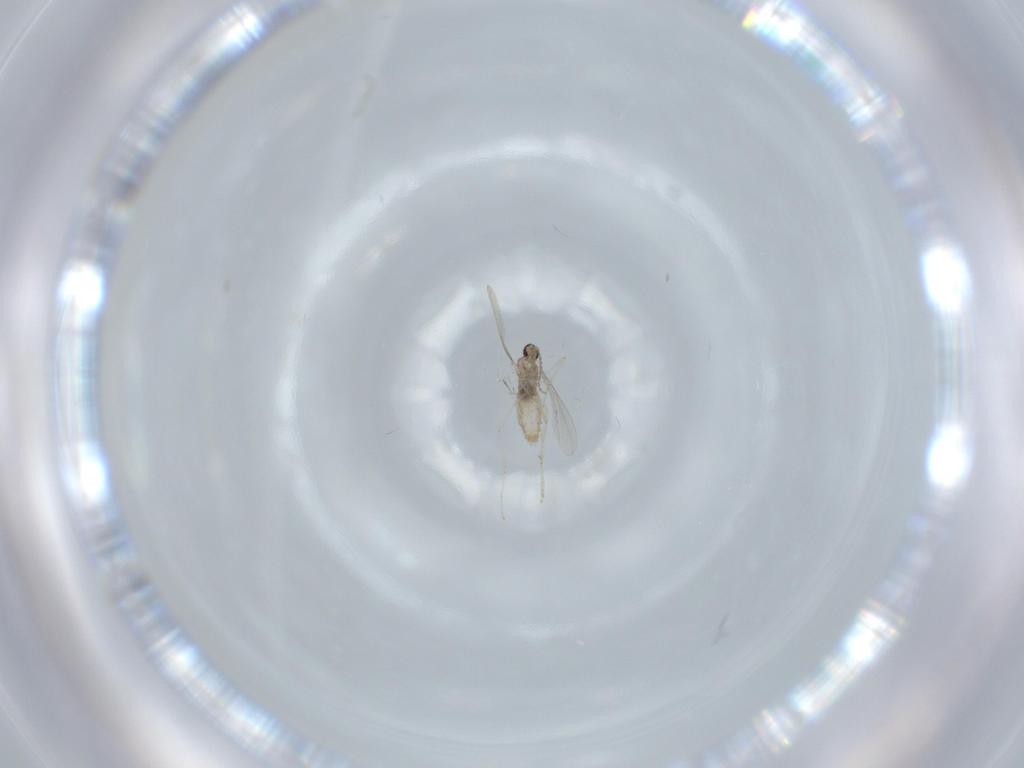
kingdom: Animalia
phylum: Arthropoda
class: Insecta
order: Diptera
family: Cecidomyiidae
